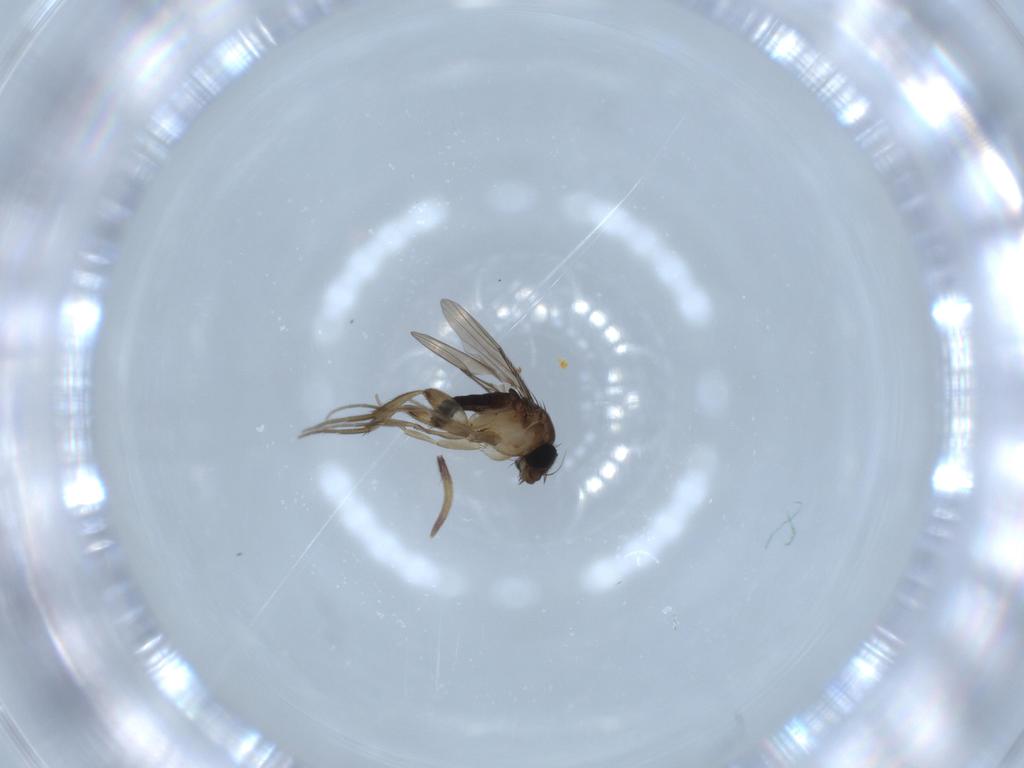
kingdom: Animalia
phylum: Arthropoda
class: Insecta
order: Diptera
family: Phoridae
